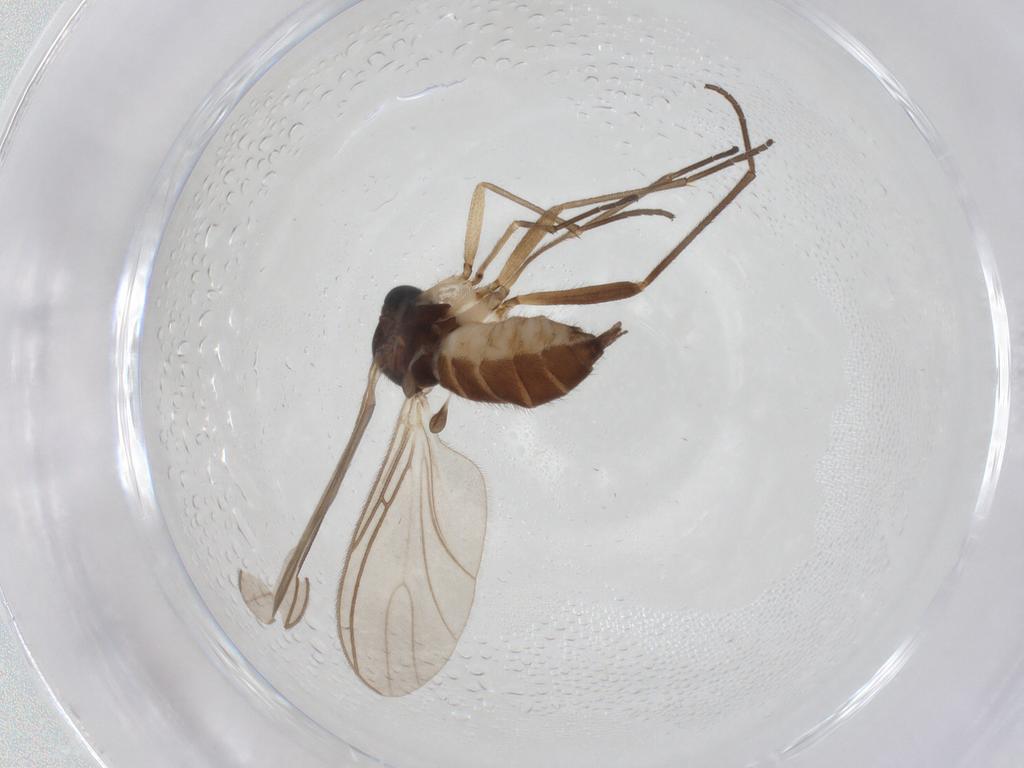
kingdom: Animalia
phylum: Arthropoda
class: Insecta
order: Diptera
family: Sciaridae
